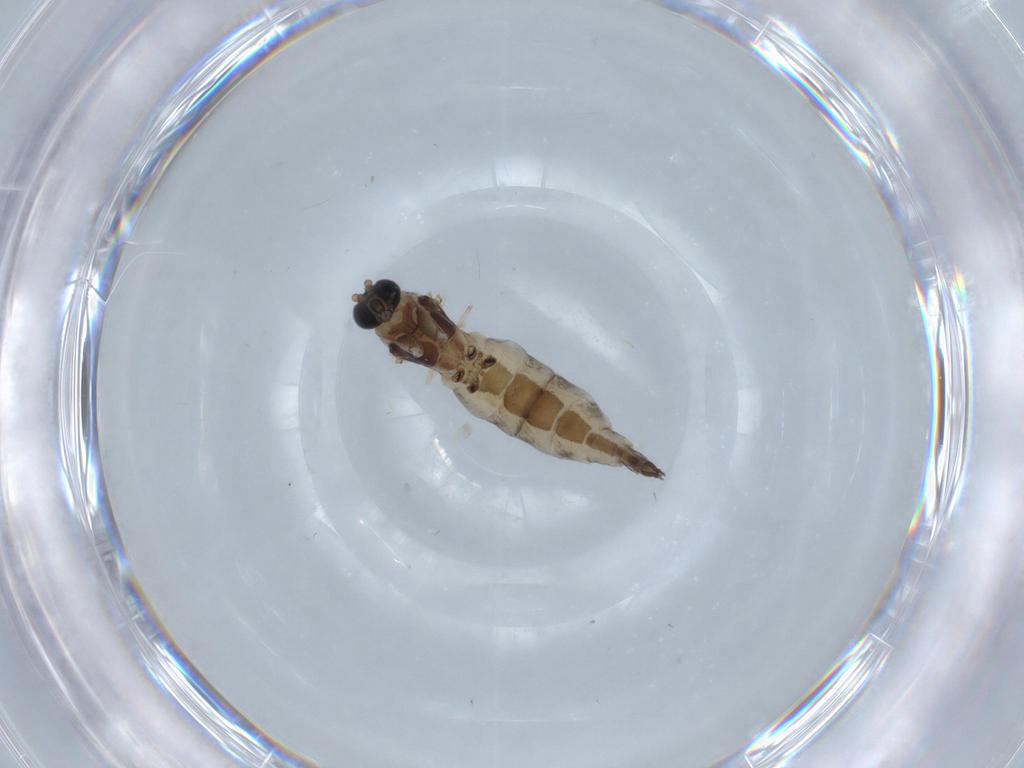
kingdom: Animalia
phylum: Arthropoda
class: Insecta
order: Diptera
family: Sciaridae
